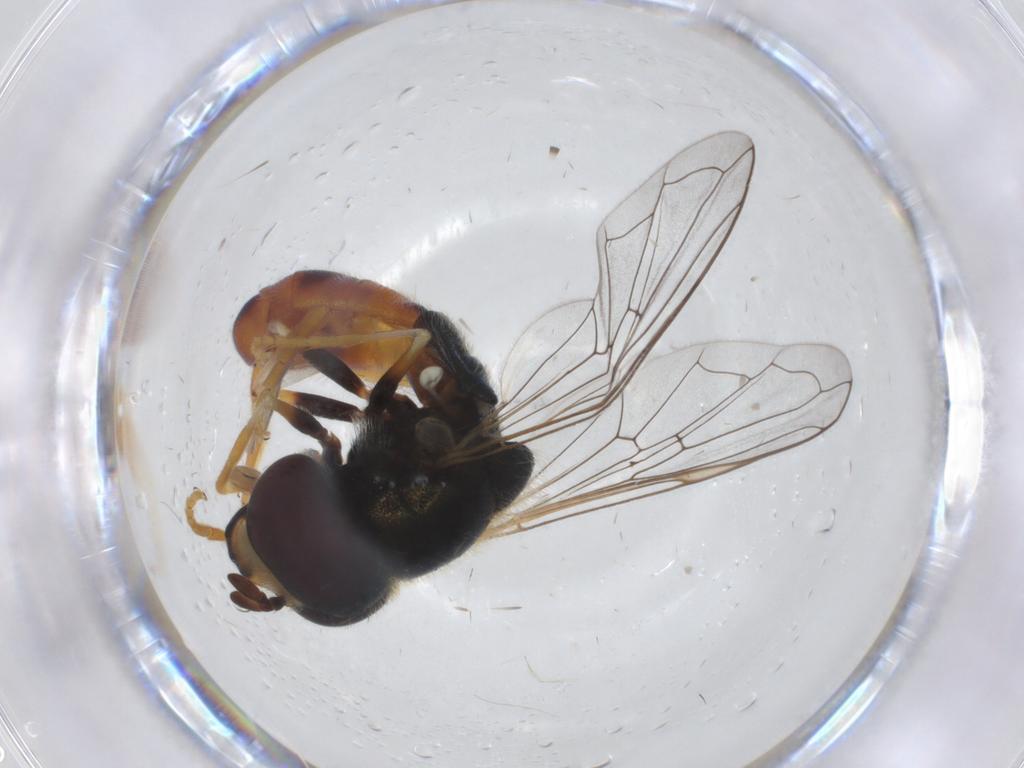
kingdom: Animalia
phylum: Arthropoda
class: Insecta
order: Diptera
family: Syrphidae
